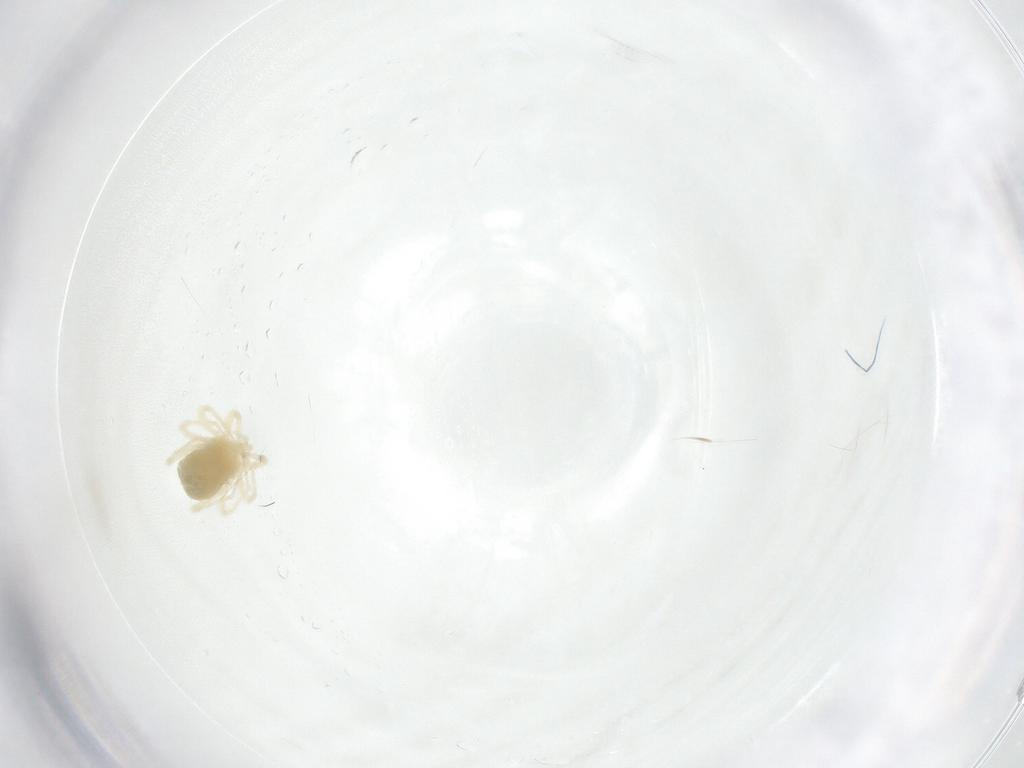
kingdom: Animalia
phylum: Arthropoda
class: Arachnida
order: Trombidiformes
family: Anystidae
